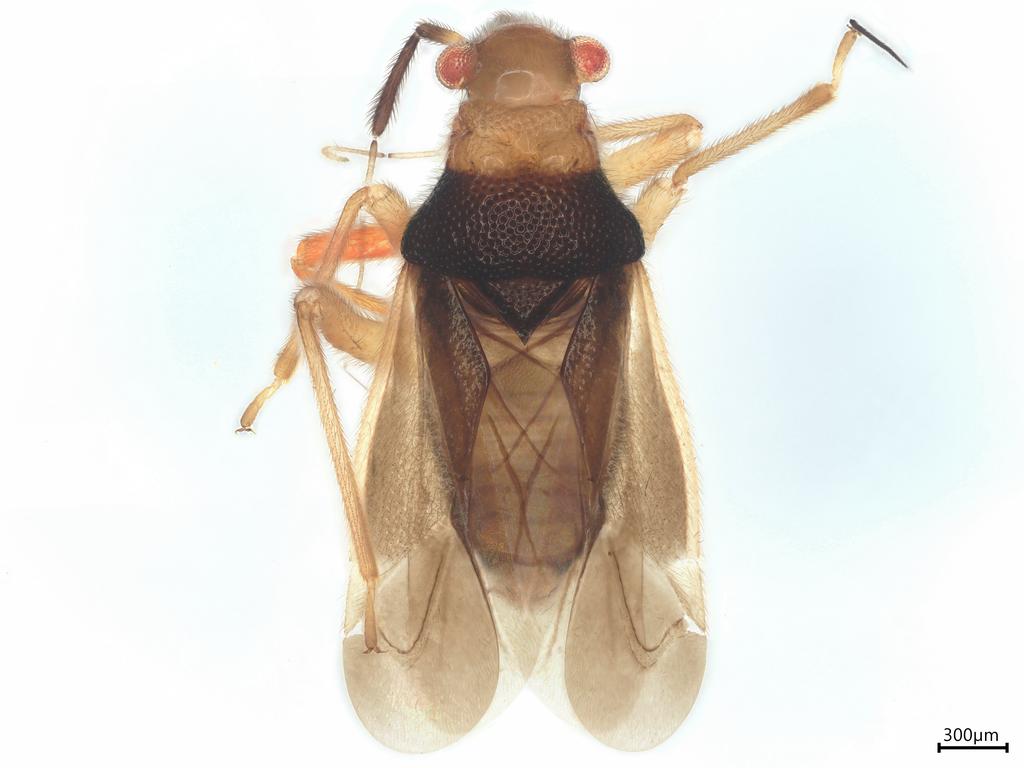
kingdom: Animalia
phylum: Arthropoda
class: Insecta
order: Hemiptera
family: Miridae
